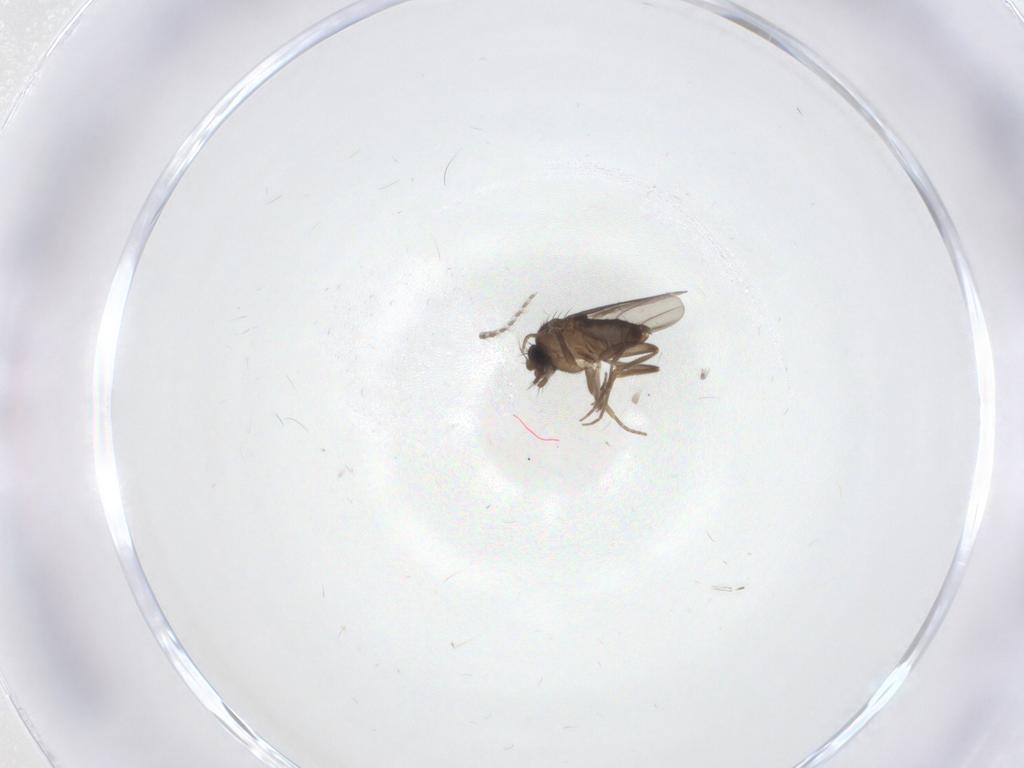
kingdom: Animalia
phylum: Arthropoda
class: Insecta
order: Diptera
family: Phoridae
